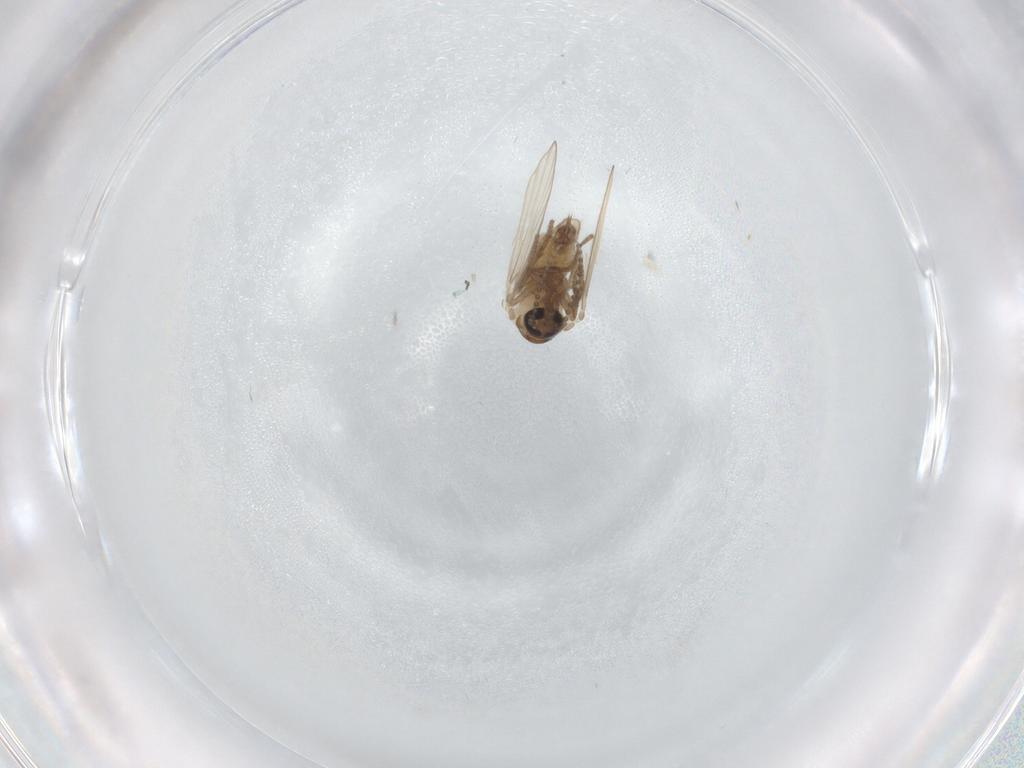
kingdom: Animalia
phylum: Arthropoda
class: Insecta
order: Diptera
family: Psychodidae
